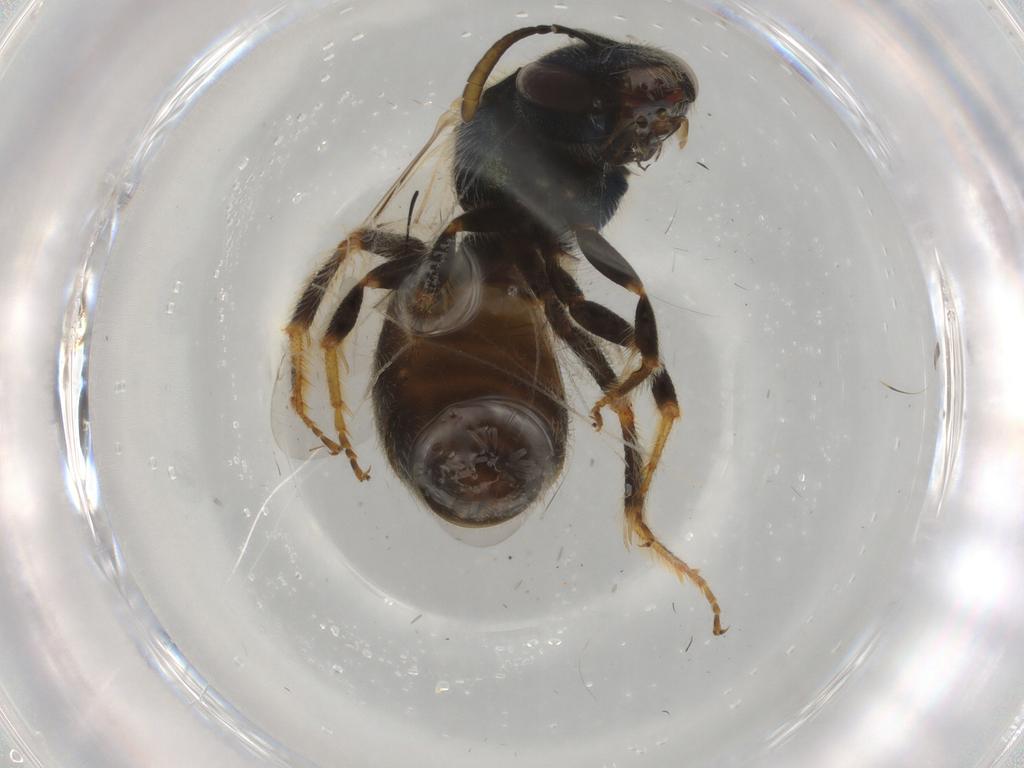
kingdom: Animalia
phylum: Arthropoda
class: Insecta
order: Hymenoptera
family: Halictidae
